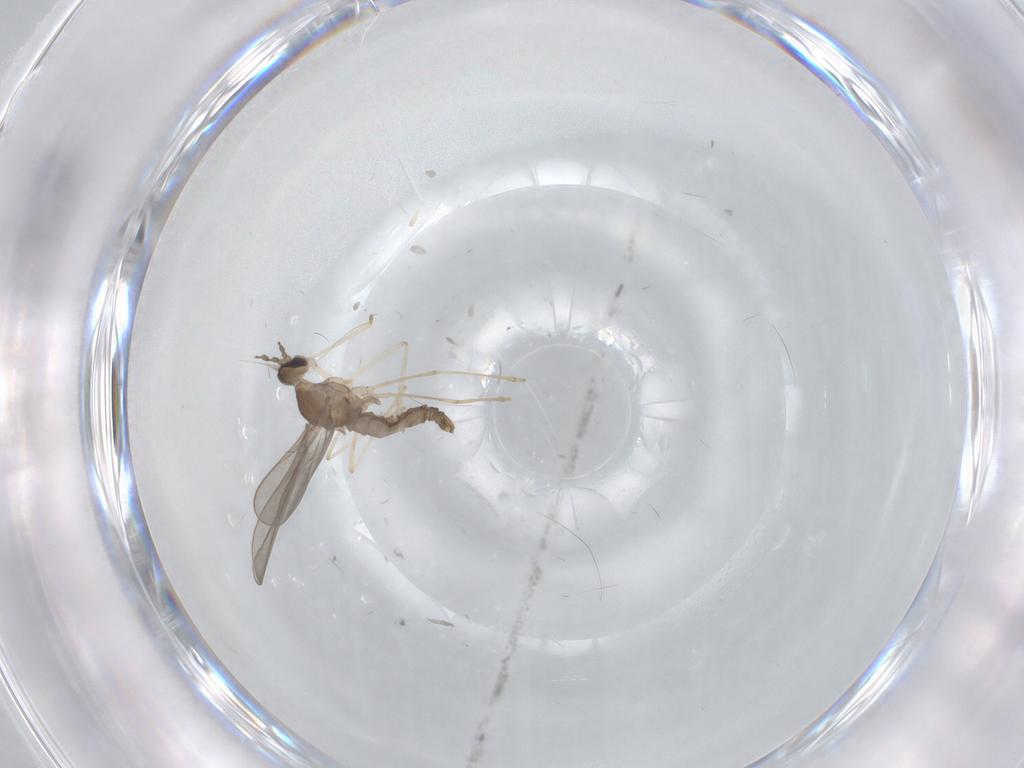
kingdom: Animalia
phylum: Arthropoda
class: Insecta
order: Diptera
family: Cecidomyiidae
